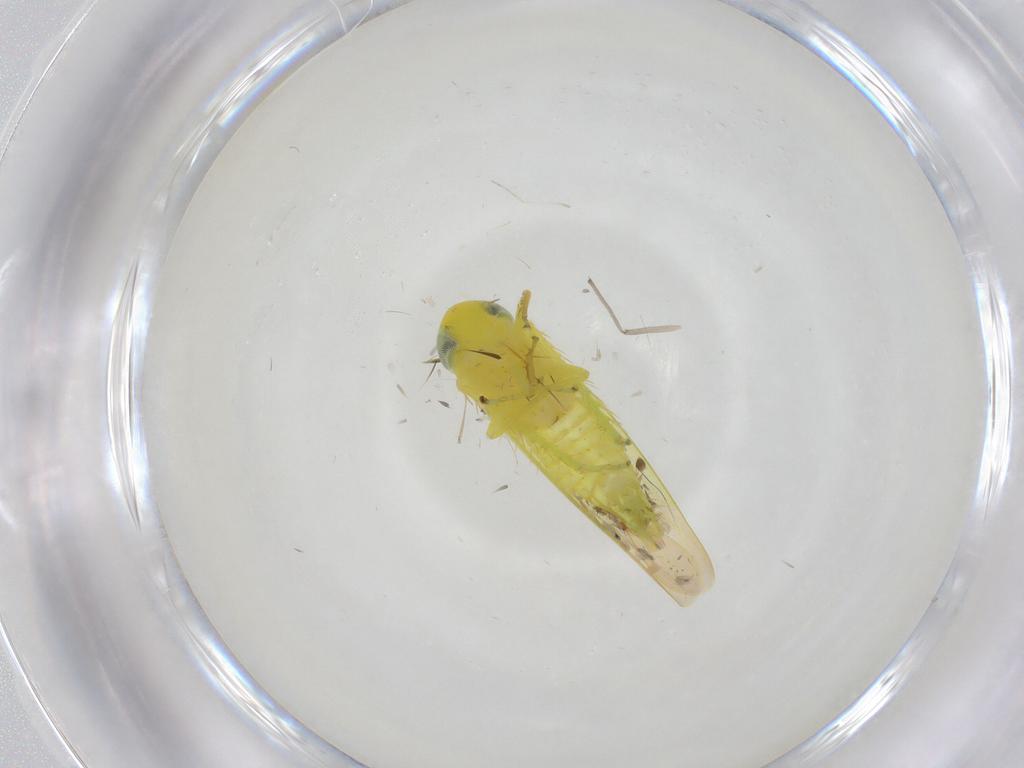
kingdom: Animalia
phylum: Arthropoda
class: Insecta
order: Hemiptera
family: Cicadellidae
